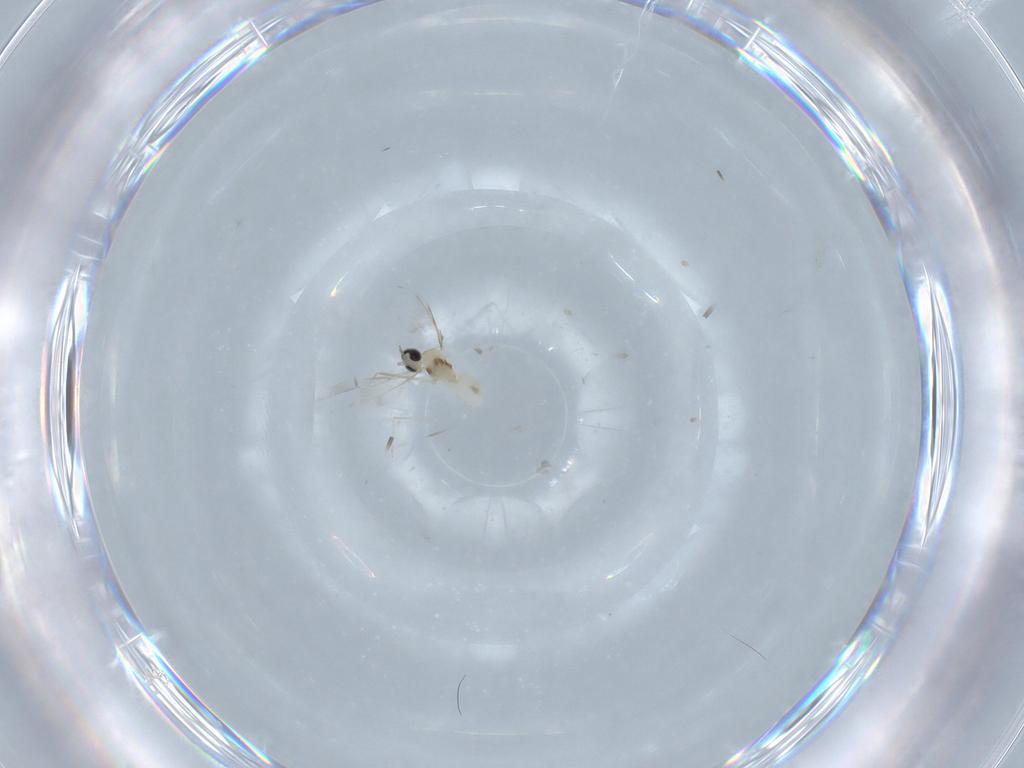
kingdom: Animalia
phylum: Arthropoda
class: Insecta
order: Diptera
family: Cecidomyiidae
